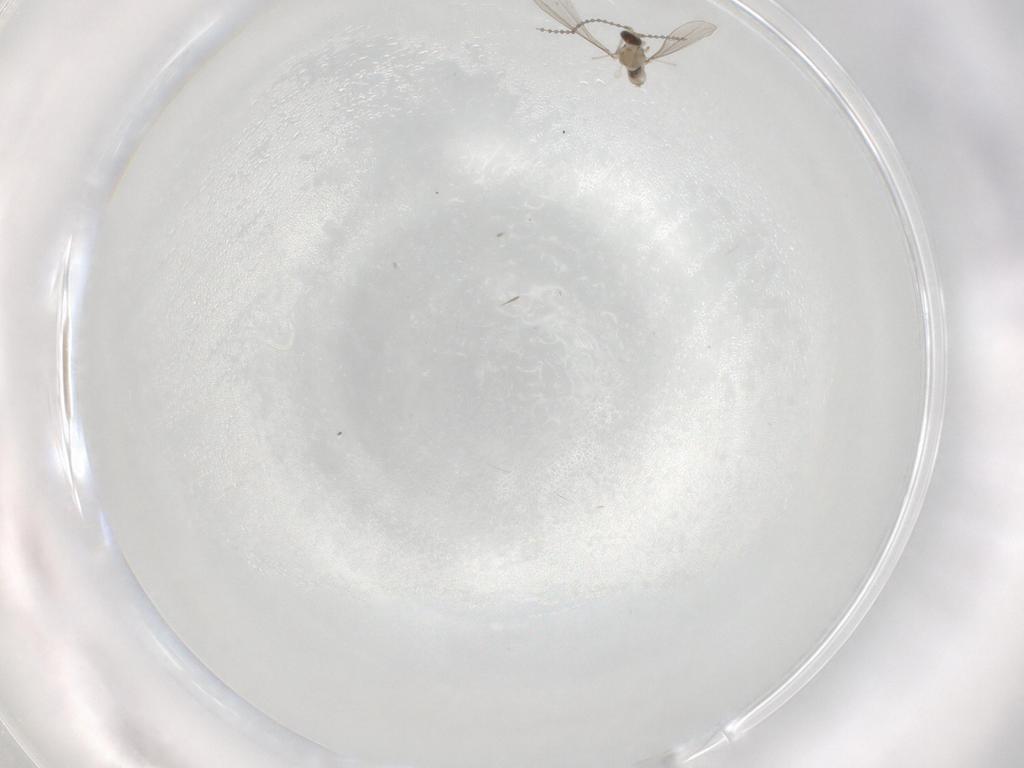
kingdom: Animalia
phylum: Arthropoda
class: Insecta
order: Diptera
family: Cecidomyiidae
